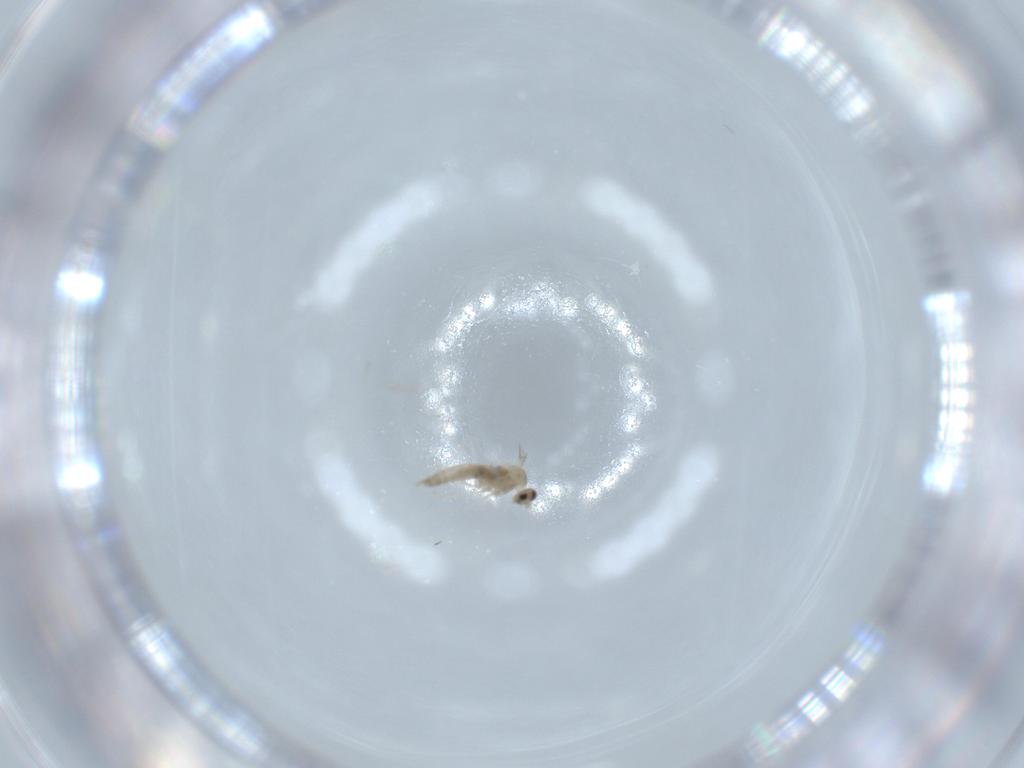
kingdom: Animalia
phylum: Arthropoda
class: Insecta
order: Diptera
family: Cecidomyiidae
